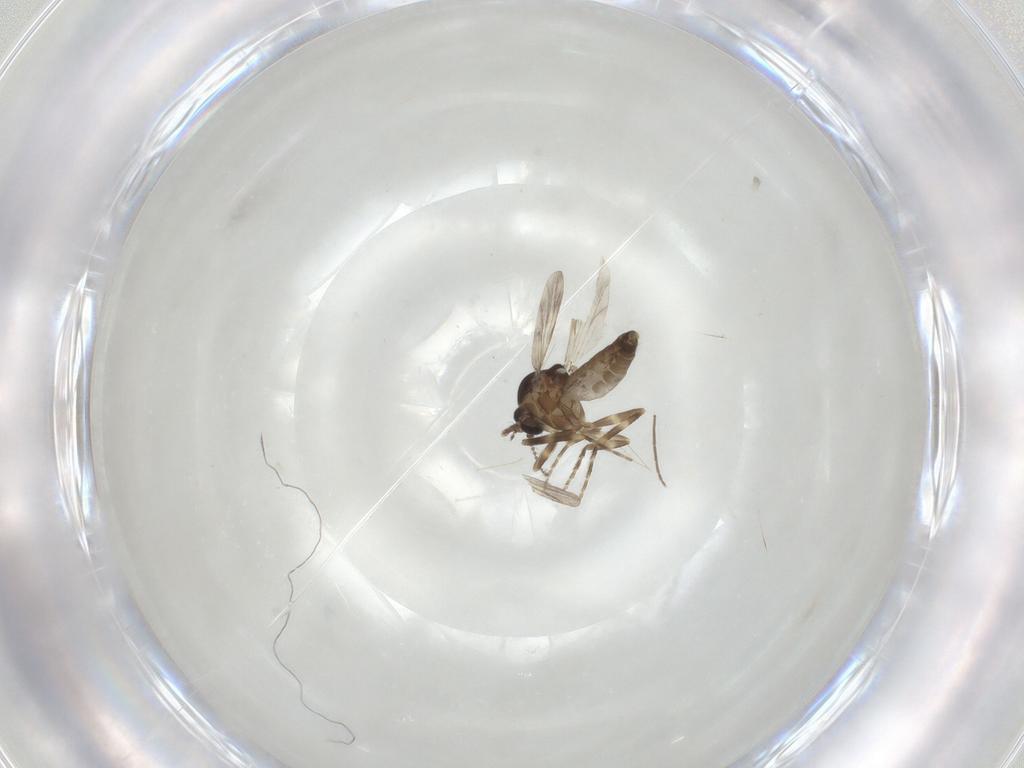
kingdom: Animalia
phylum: Arthropoda
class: Insecta
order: Diptera
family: Ceratopogonidae
